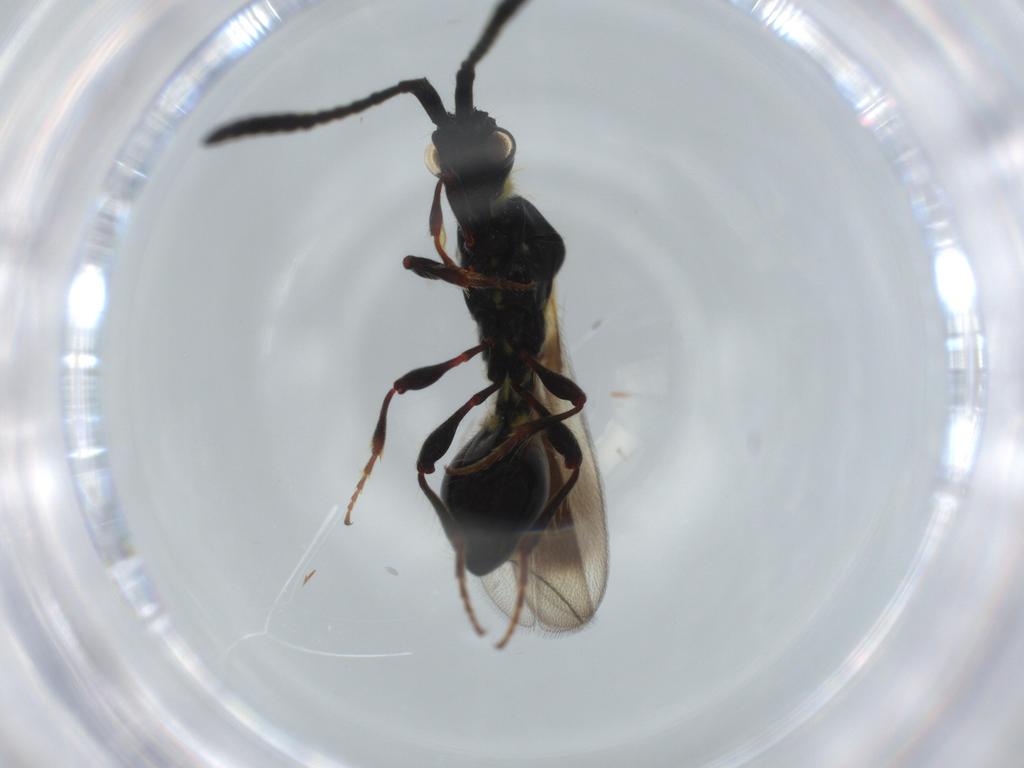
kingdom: Animalia
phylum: Arthropoda
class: Insecta
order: Hymenoptera
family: Diapriidae
